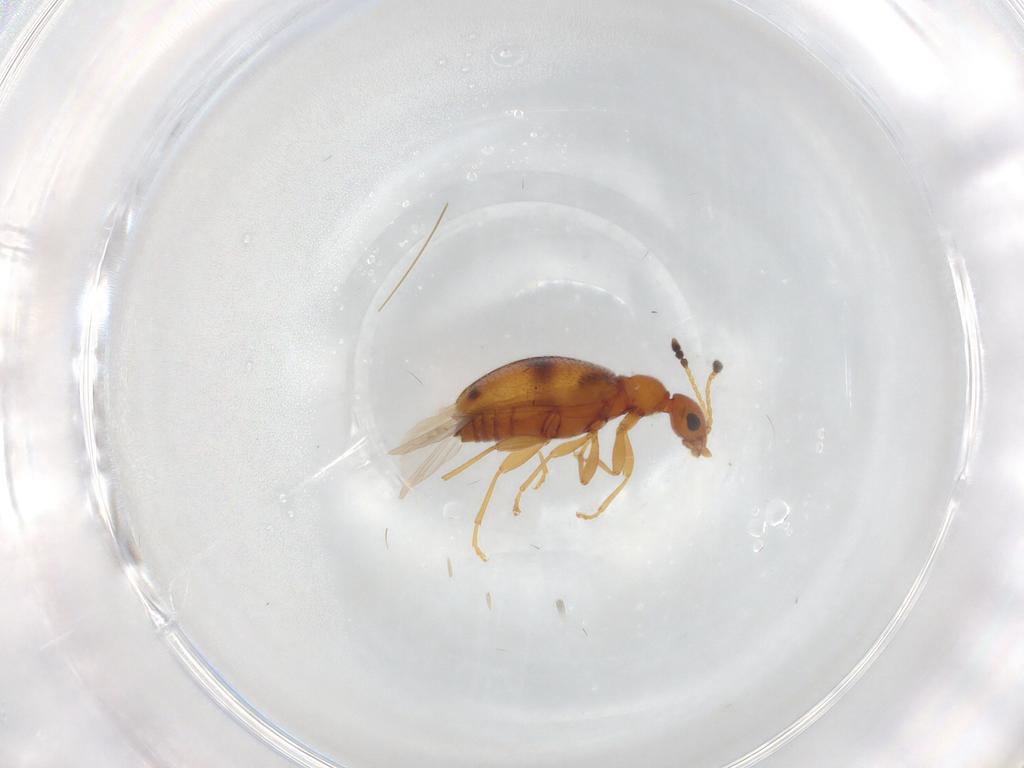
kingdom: Animalia
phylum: Arthropoda
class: Insecta
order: Coleoptera
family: Anthicidae
